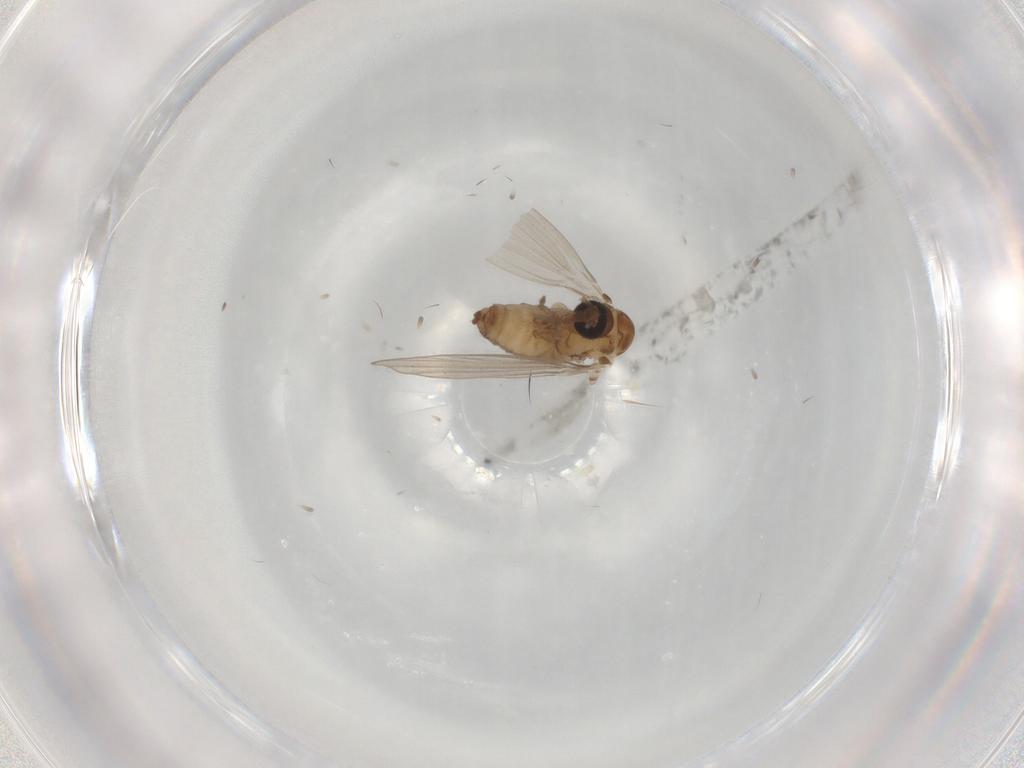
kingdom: Animalia
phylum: Arthropoda
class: Insecta
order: Diptera
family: Psychodidae
